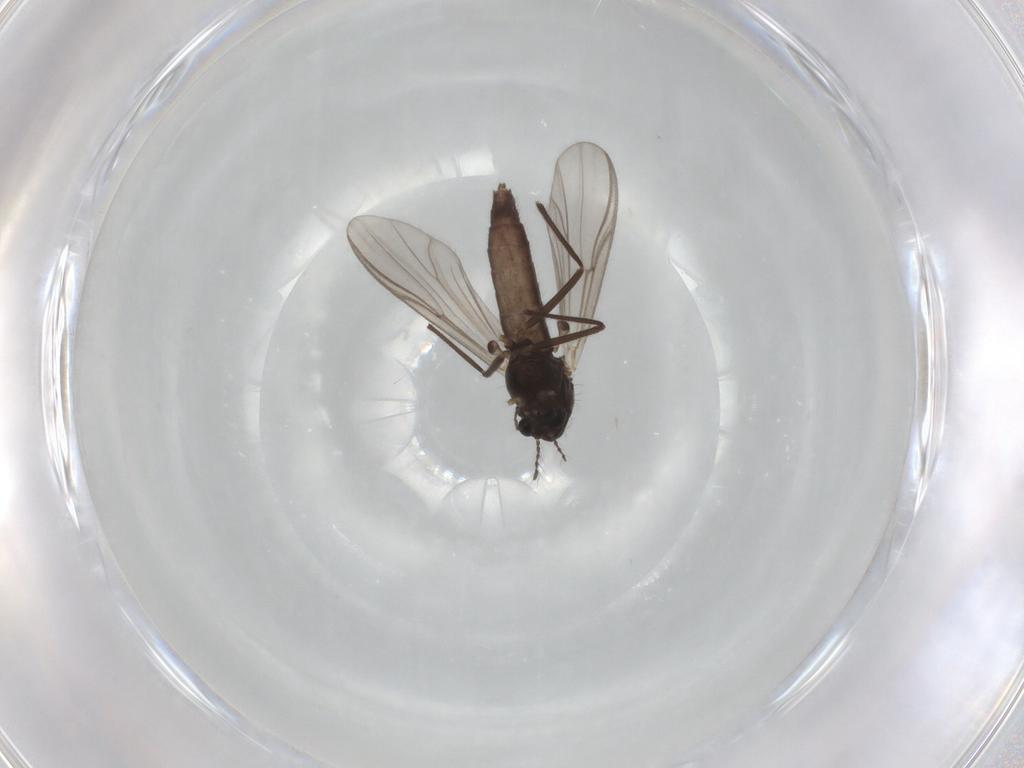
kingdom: Animalia
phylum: Arthropoda
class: Insecta
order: Diptera
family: Chironomidae
